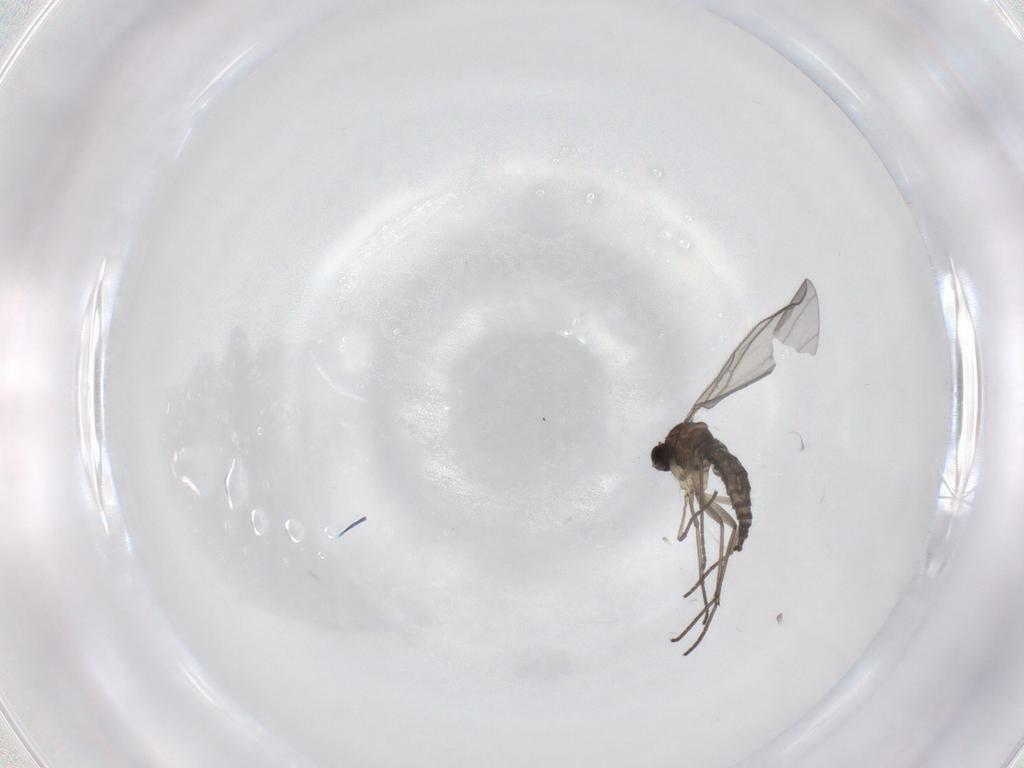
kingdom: Animalia
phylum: Arthropoda
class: Insecta
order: Diptera
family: Sciaridae
